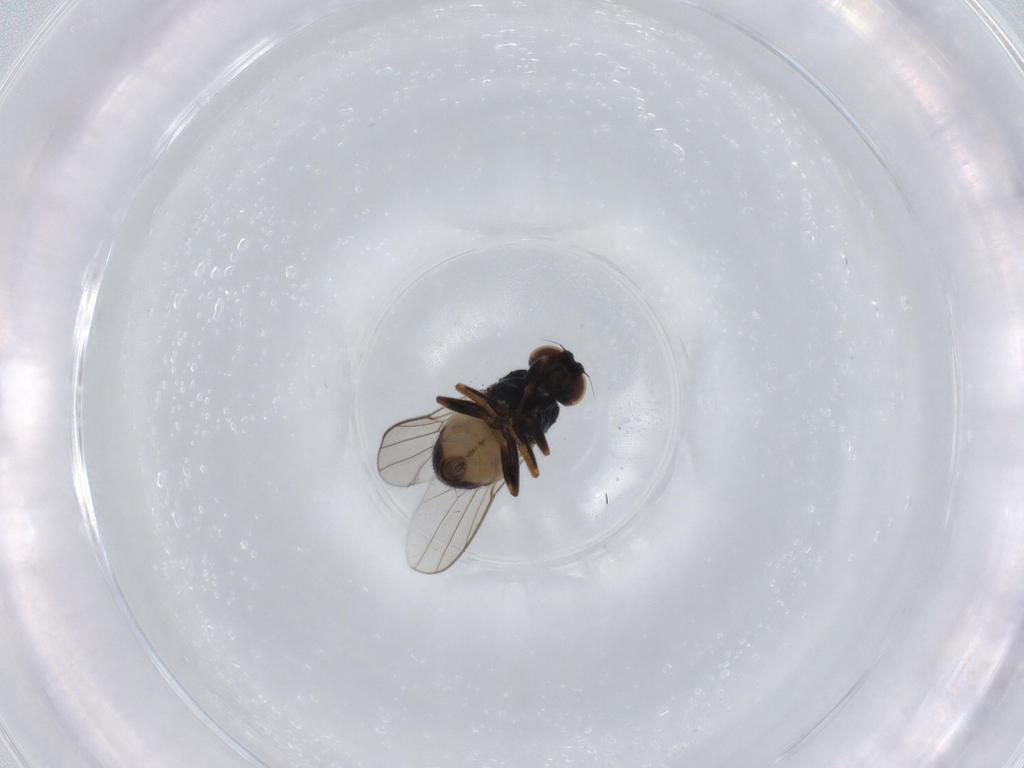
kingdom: Animalia
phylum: Arthropoda
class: Insecta
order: Diptera
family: Chloropidae
